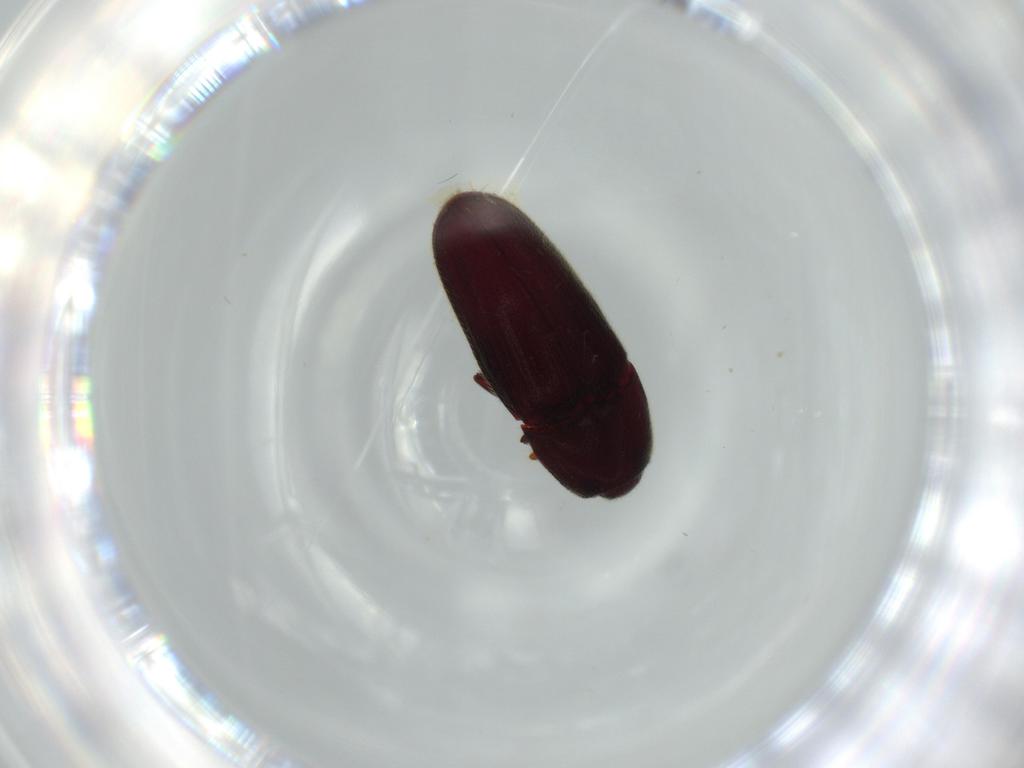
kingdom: Animalia
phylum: Arthropoda
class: Insecta
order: Coleoptera
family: Throscidae
